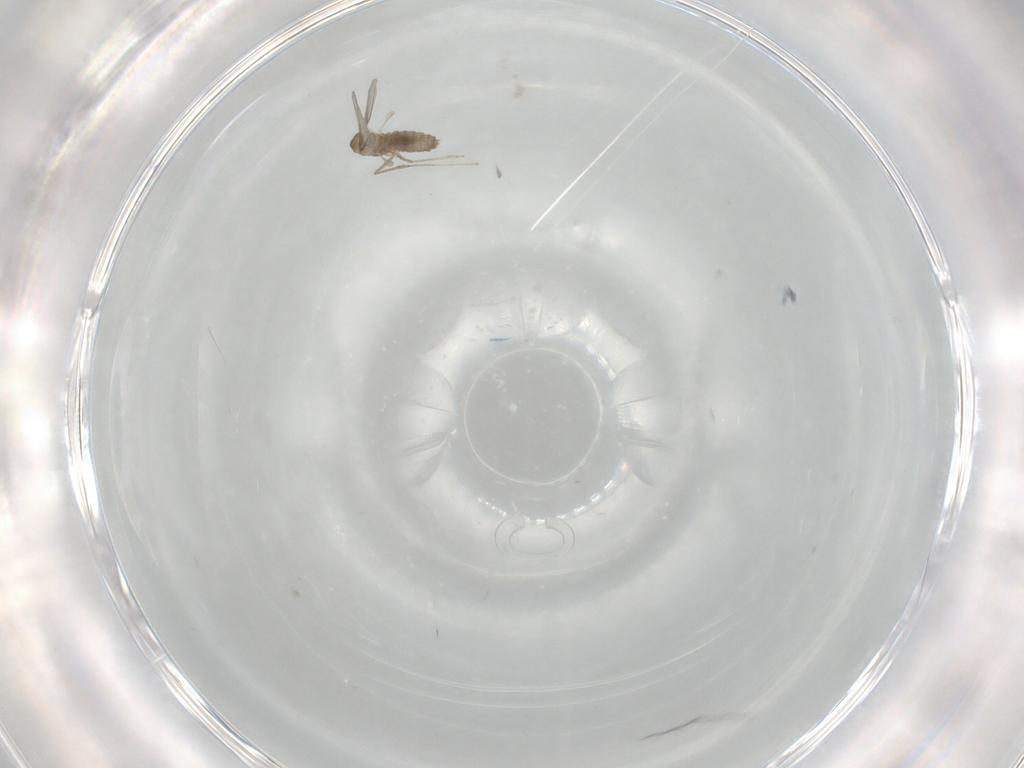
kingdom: Animalia
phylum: Arthropoda
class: Insecta
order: Diptera
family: Cecidomyiidae
